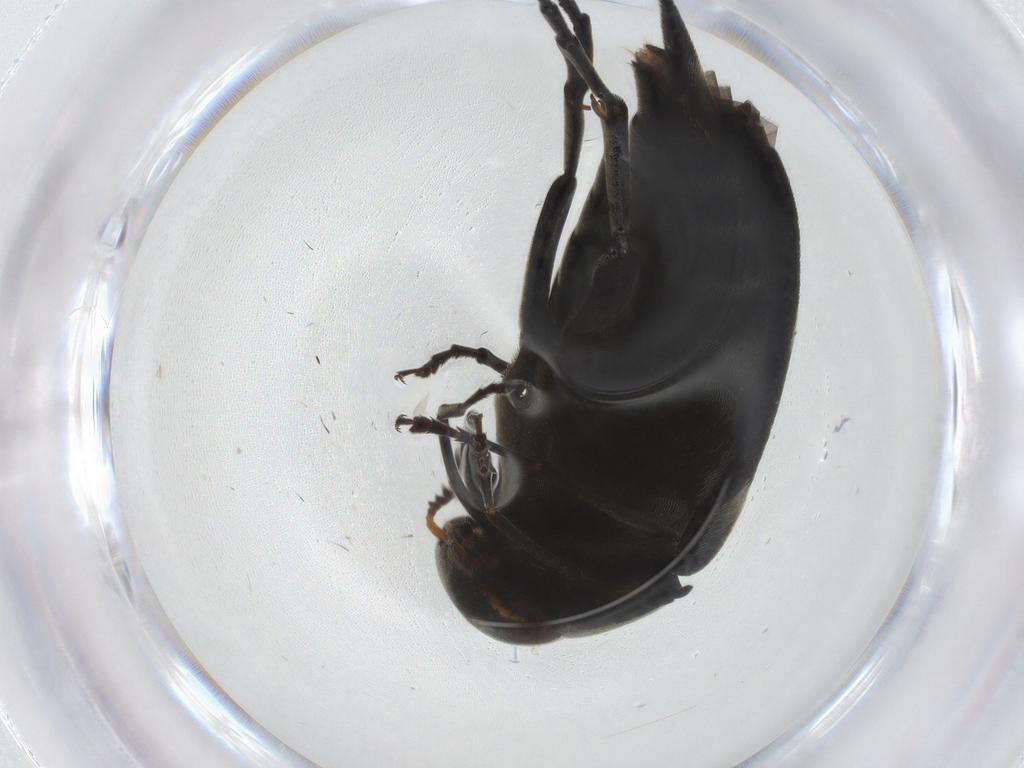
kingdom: Animalia
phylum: Arthropoda
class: Insecta
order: Coleoptera
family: Mordellidae
